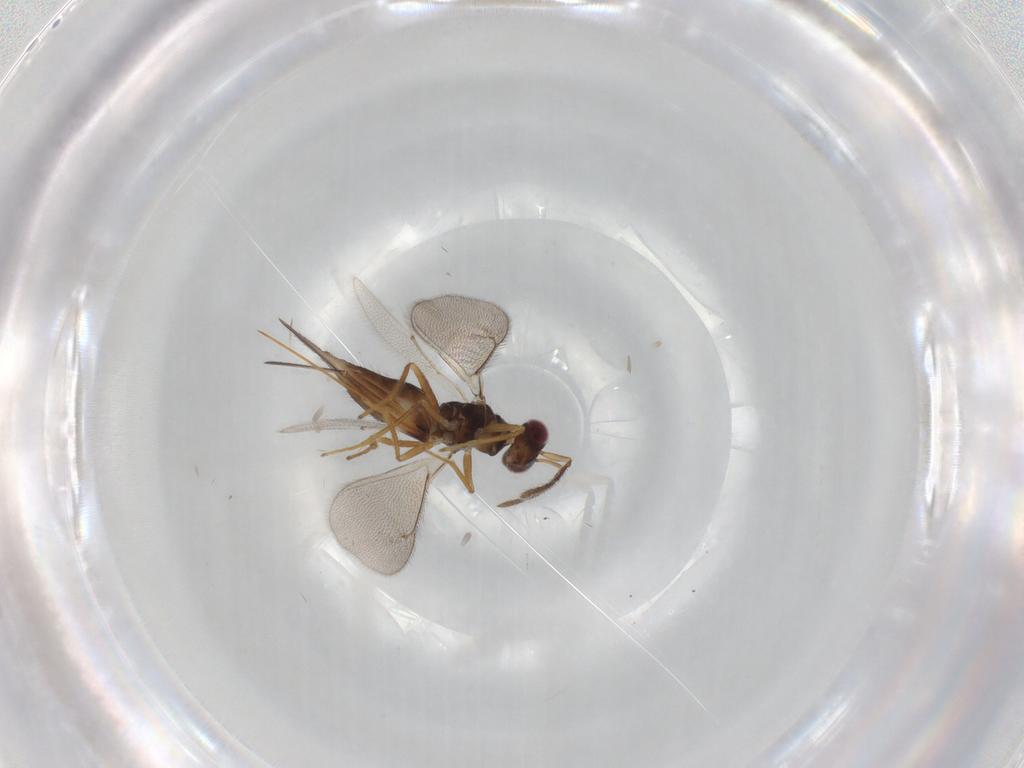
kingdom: Animalia
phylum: Arthropoda
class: Insecta
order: Hymenoptera
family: Eulophidae
